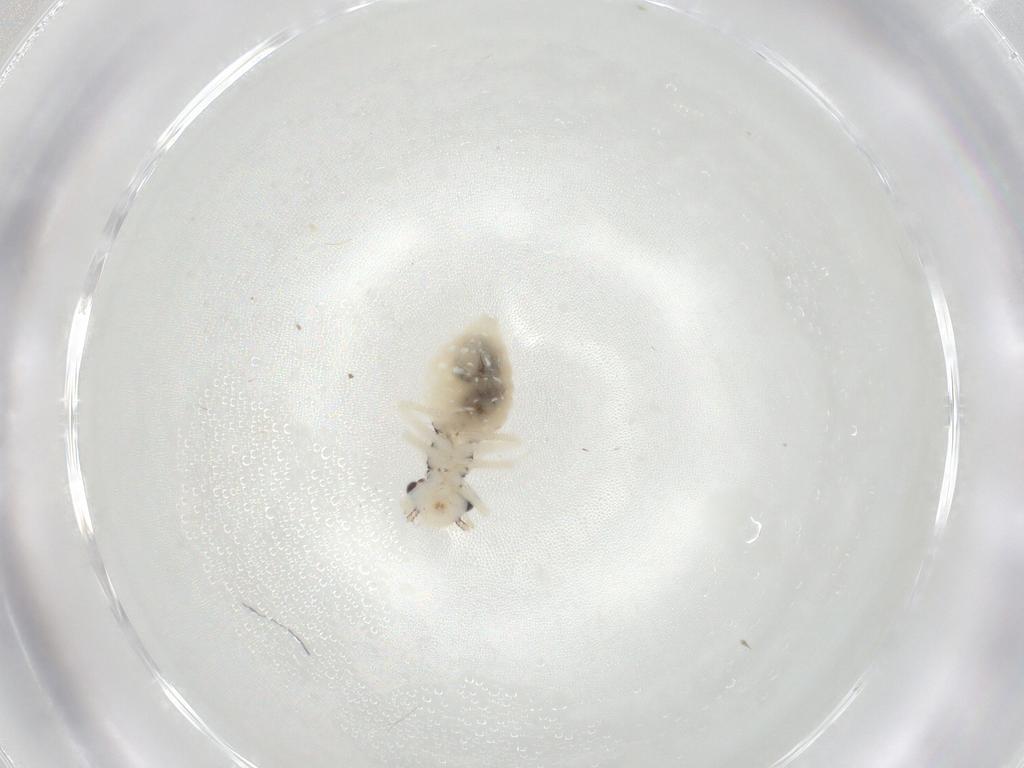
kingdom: Animalia
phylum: Arthropoda
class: Insecta
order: Psocodea
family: Philotarsidae
